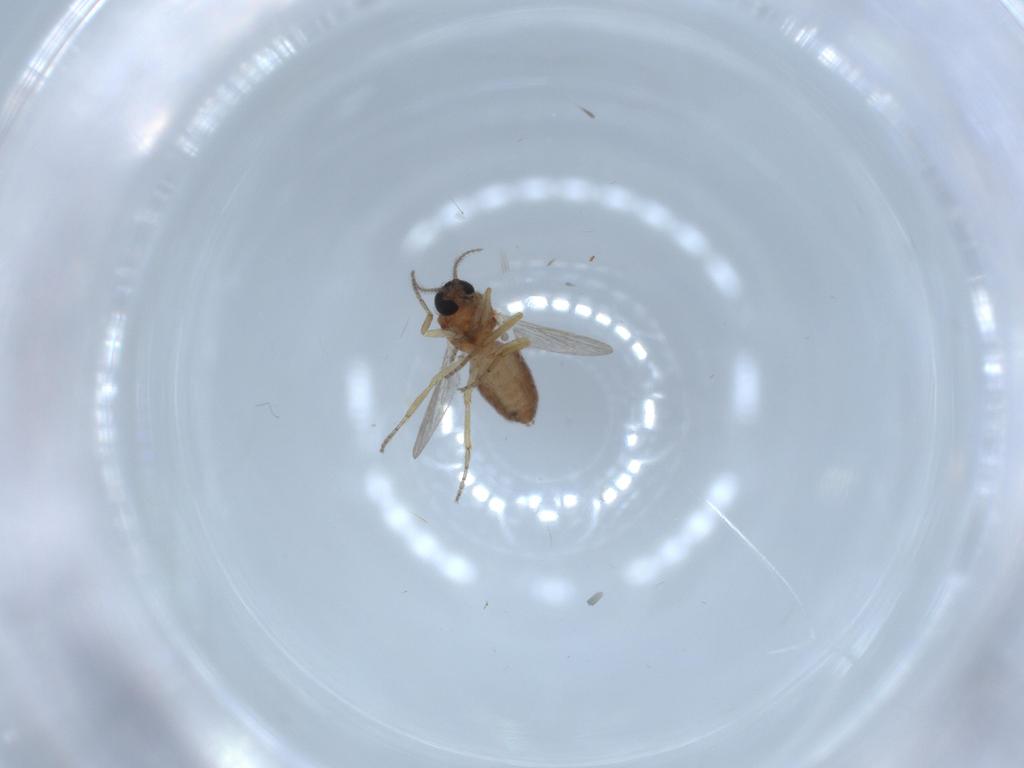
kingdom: Animalia
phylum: Arthropoda
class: Insecta
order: Diptera
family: Ceratopogonidae
